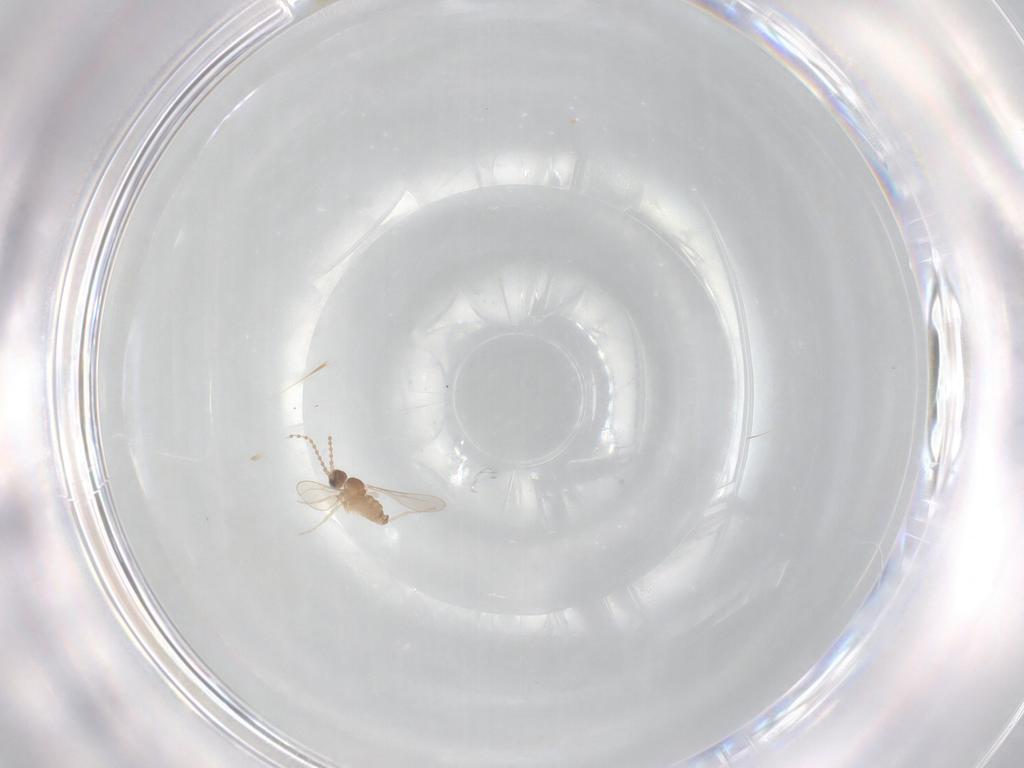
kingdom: Animalia
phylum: Arthropoda
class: Insecta
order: Diptera
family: Cecidomyiidae
